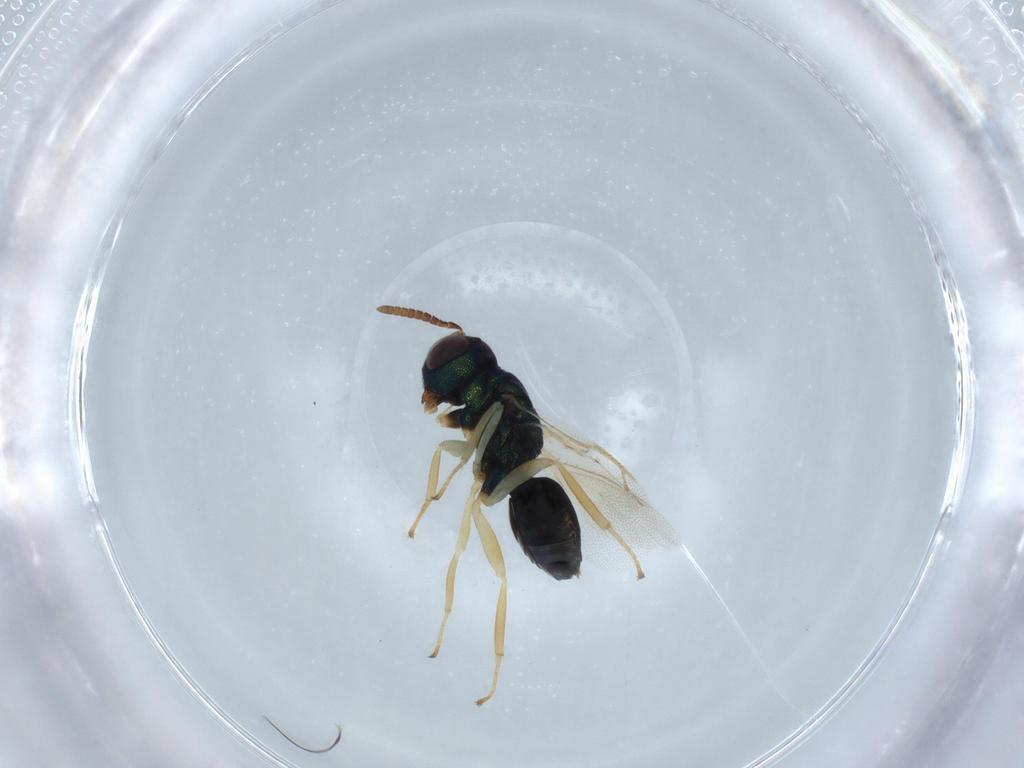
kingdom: Animalia
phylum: Arthropoda
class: Insecta
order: Hymenoptera
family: Pteromalidae
